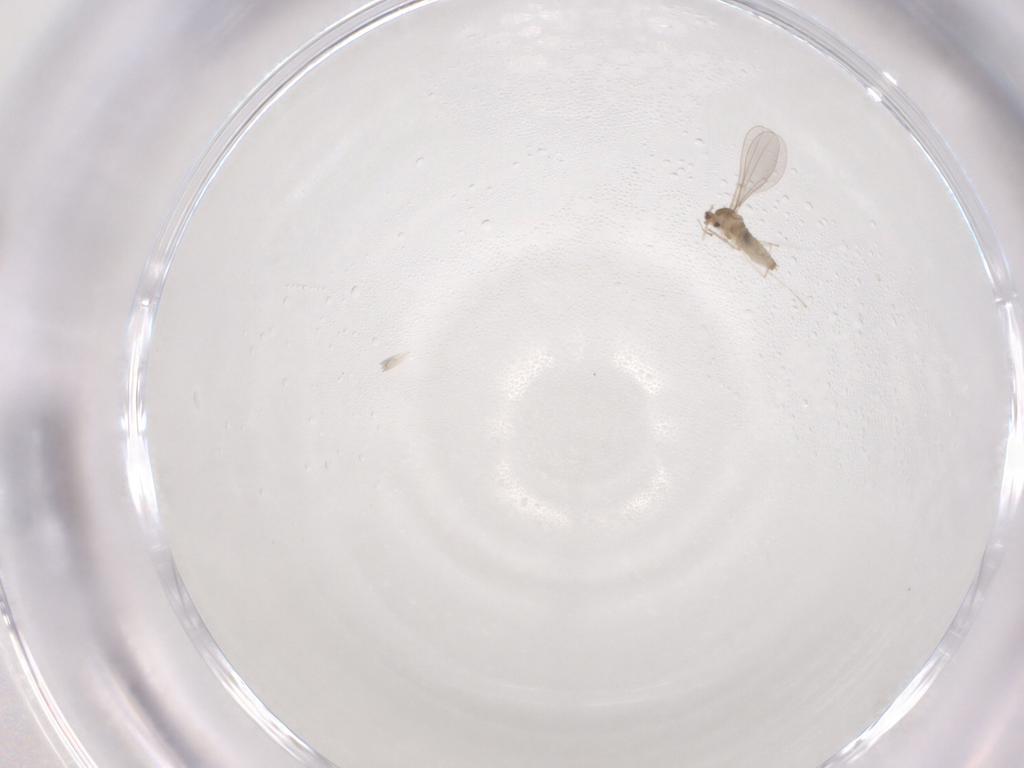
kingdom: Animalia
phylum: Arthropoda
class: Insecta
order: Diptera
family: Cecidomyiidae
